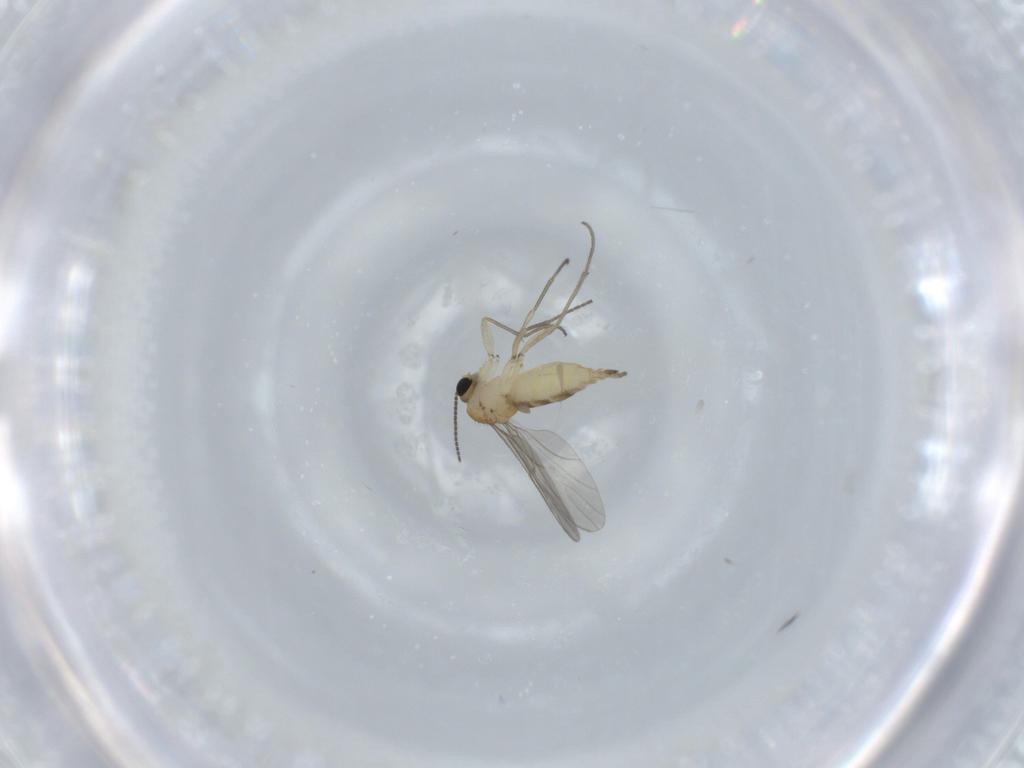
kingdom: Animalia
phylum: Arthropoda
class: Insecta
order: Diptera
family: Sciaridae
